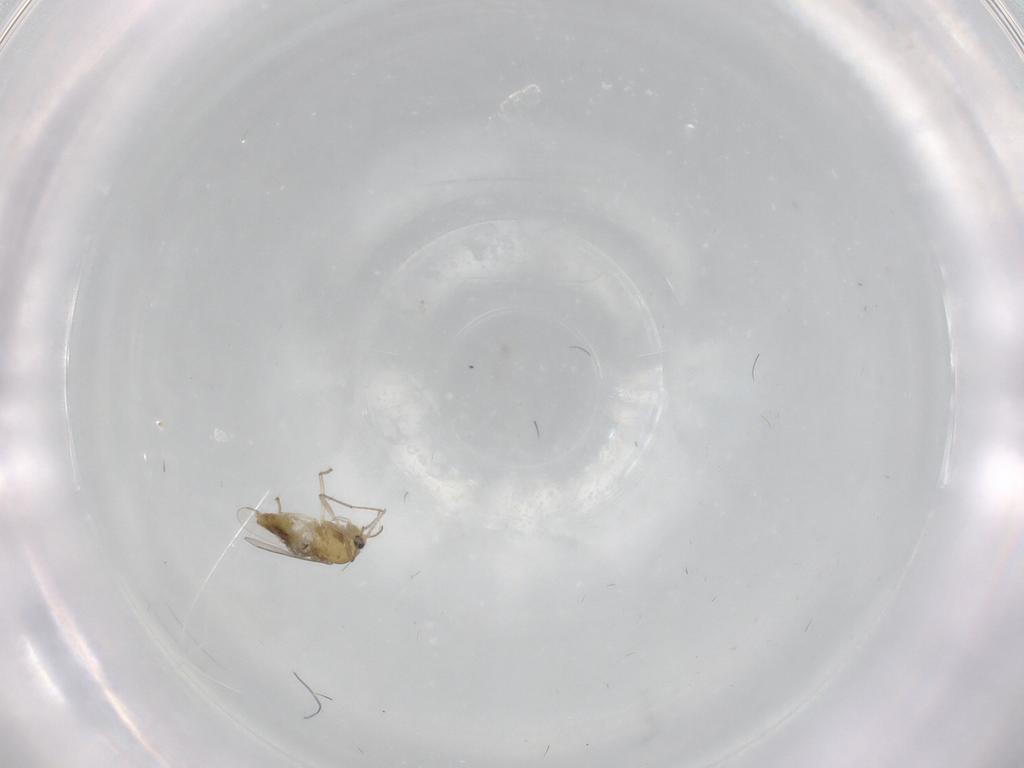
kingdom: Animalia
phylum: Arthropoda
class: Insecta
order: Diptera
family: Chironomidae
